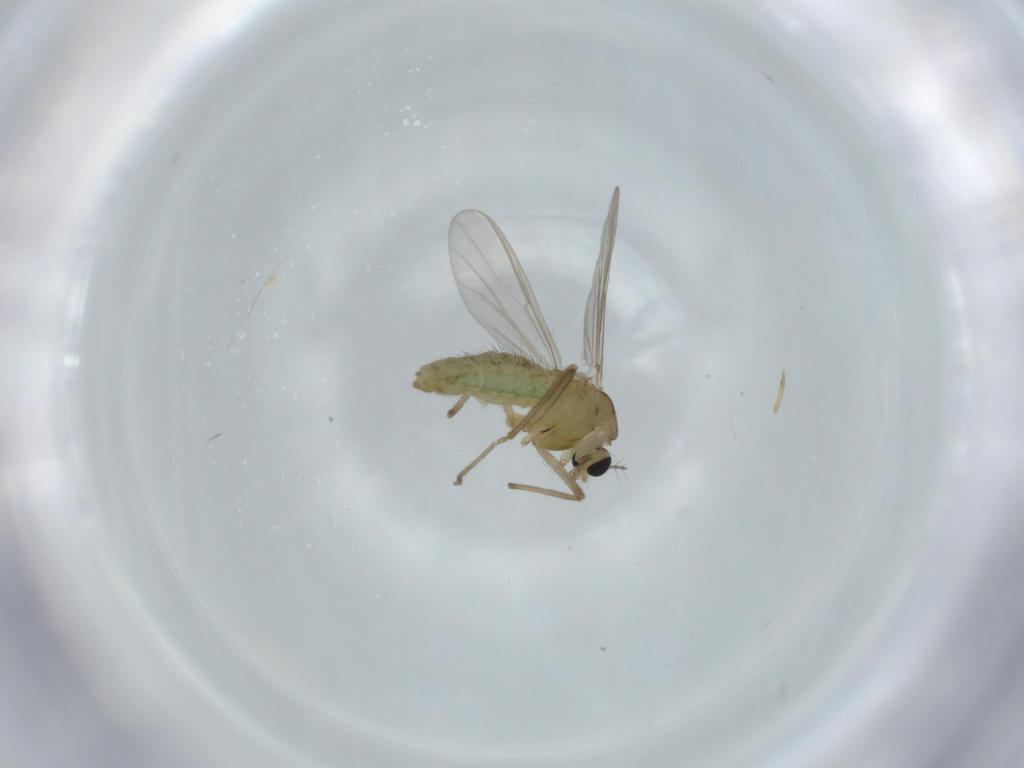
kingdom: Animalia
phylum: Arthropoda
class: Insecta
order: Diptera
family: Chironomidae
